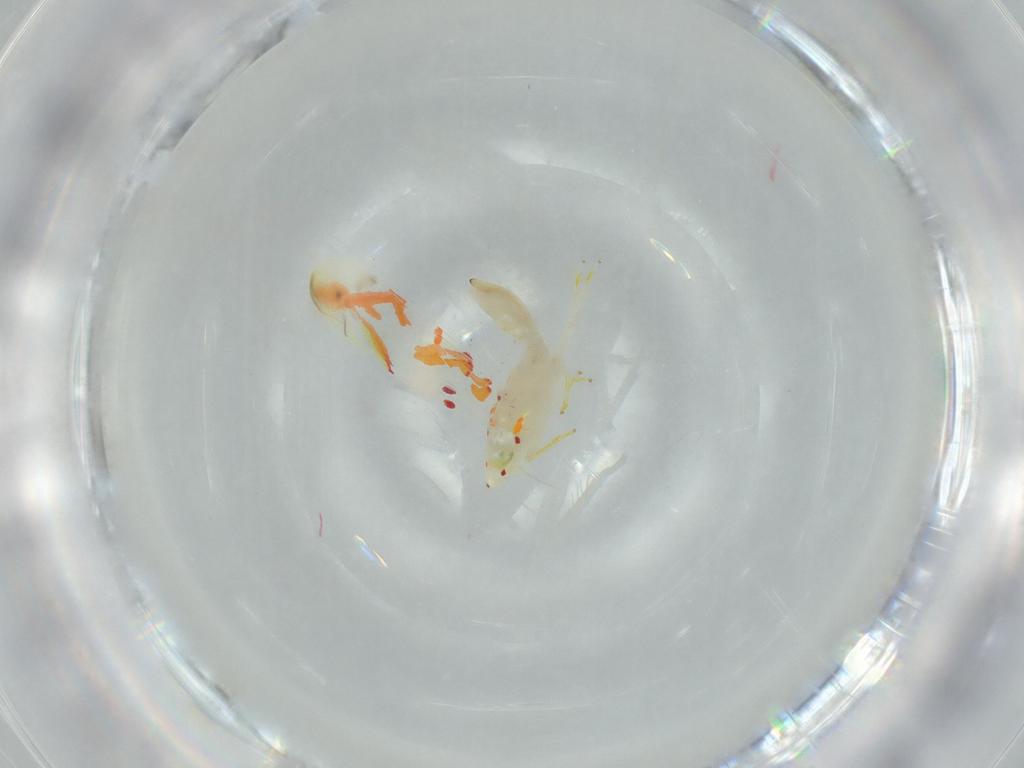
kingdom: Animalia
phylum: Arthropoda
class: Insecta
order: Hemiptera
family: Cicadellidae
